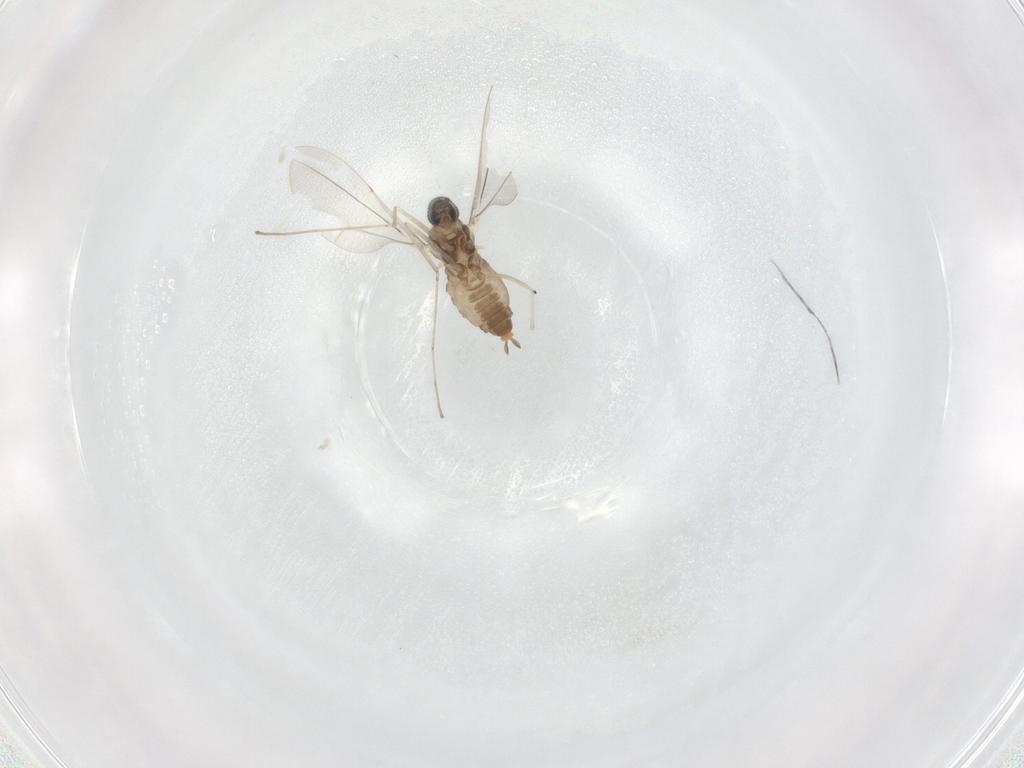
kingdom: Animalia
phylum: Arthropoda
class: Insecta
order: Diptera
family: Cecidomyiidae
